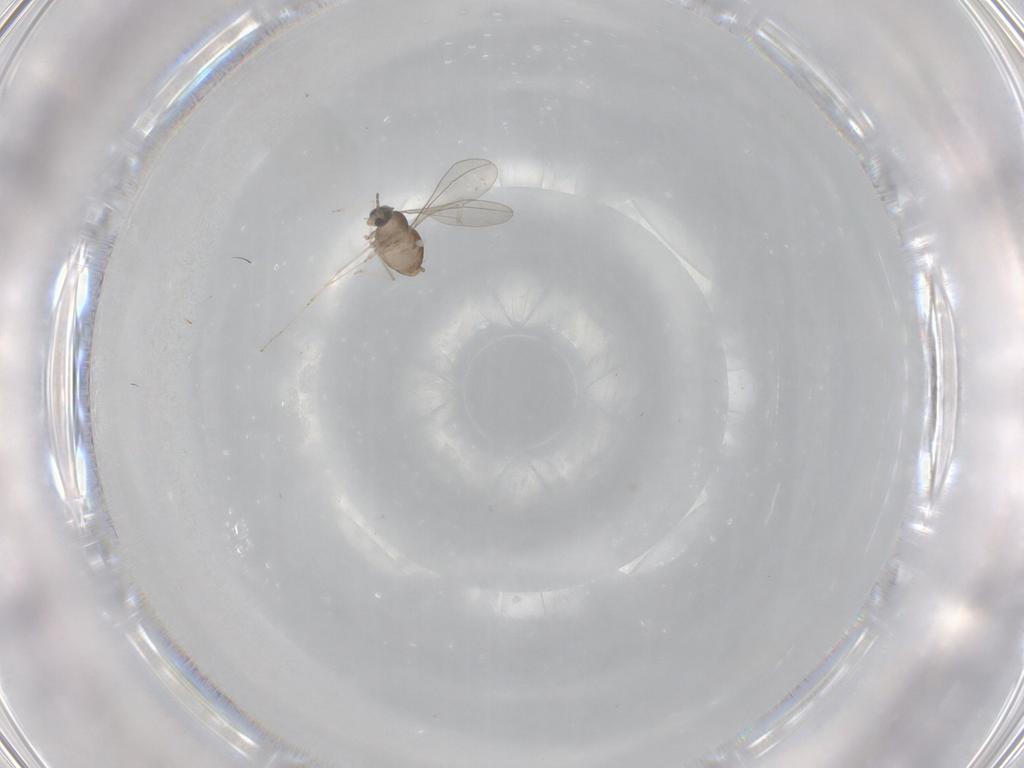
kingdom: Animalia
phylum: Arthropoda
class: Insecta
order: Diptera
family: Cecidomyiidae
